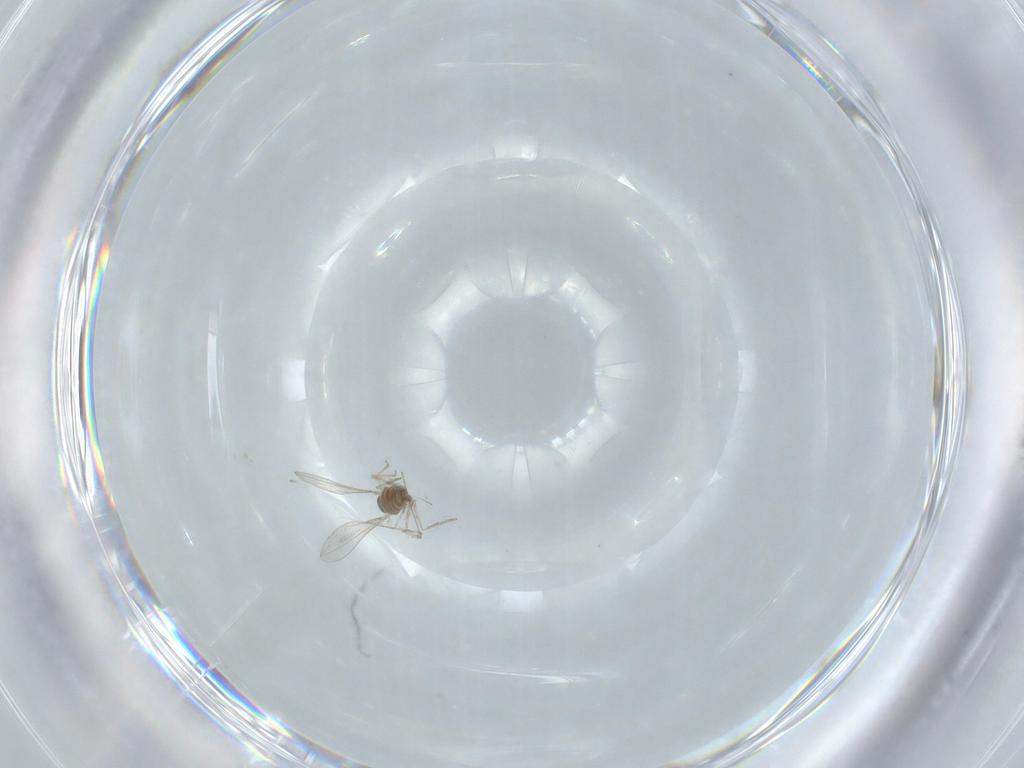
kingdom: Animalia
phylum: Arthropoda
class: Insecta
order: Diptera
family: Cecidomyiidae
